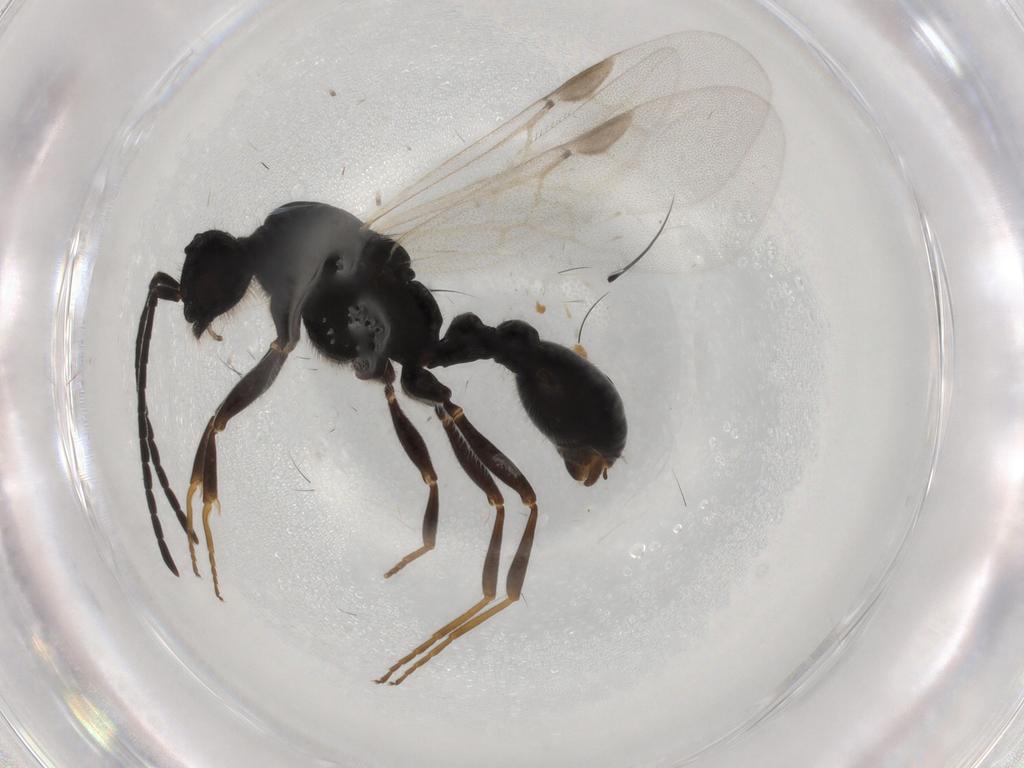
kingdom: Animalia
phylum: Arthropoda
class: Insecta
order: Hymenoptera
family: Formicidae
